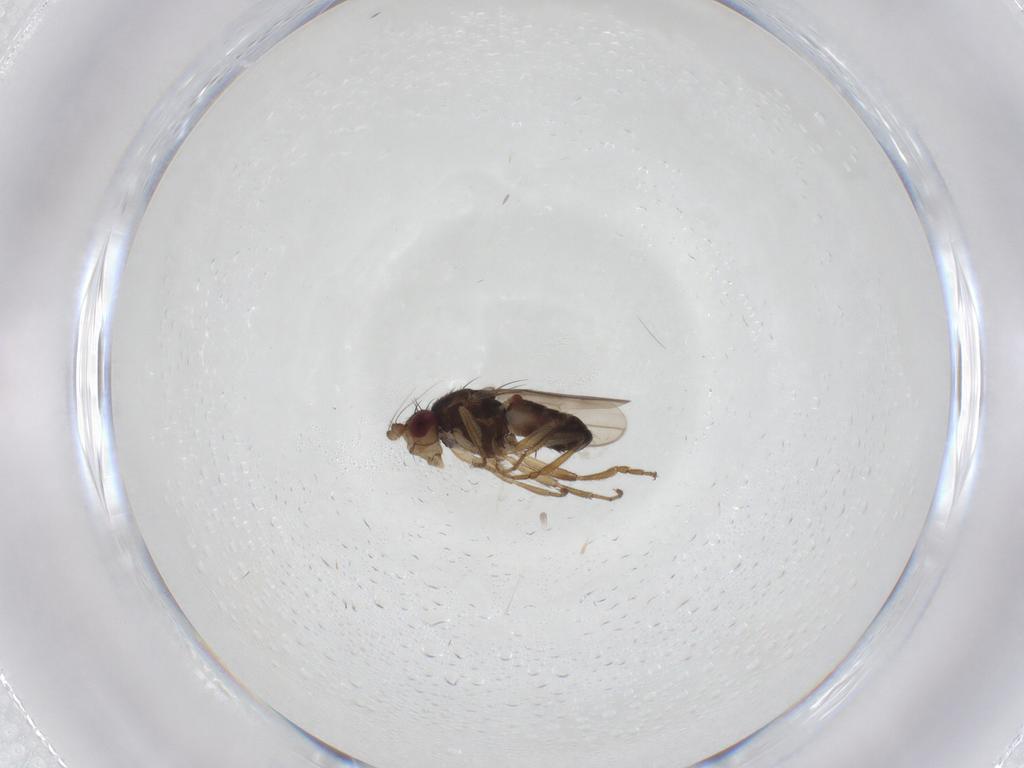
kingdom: Animalia
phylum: Arthropoda
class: Insecta
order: Diptera
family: Sphaeroceridae
